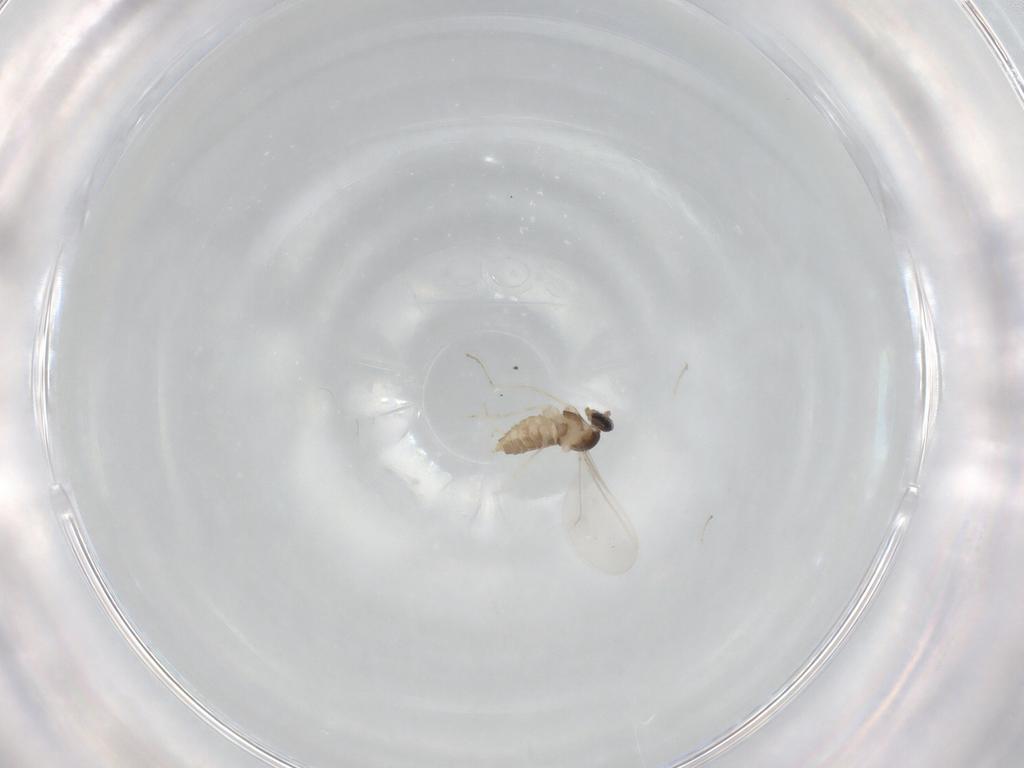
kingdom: Animalia
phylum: Arthropoda
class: Insecta
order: Diptera
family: Cecidomyiidae
